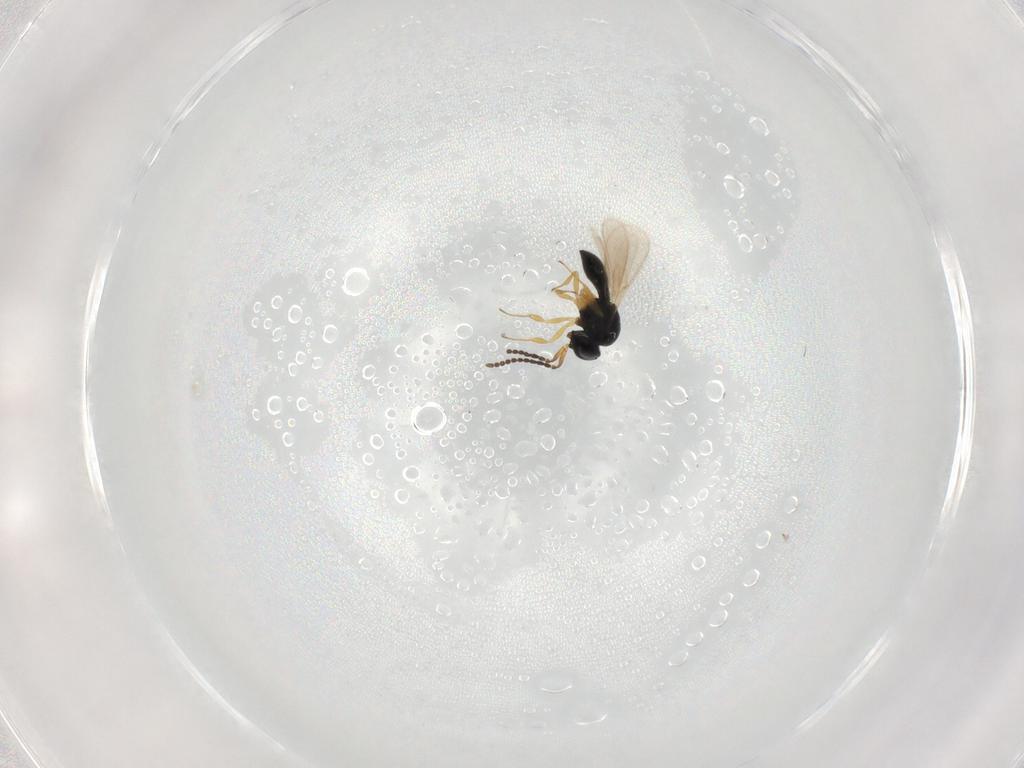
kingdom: Animalia
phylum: Arthropoda
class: Insecta
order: Hymenoptera
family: Scelionidae
